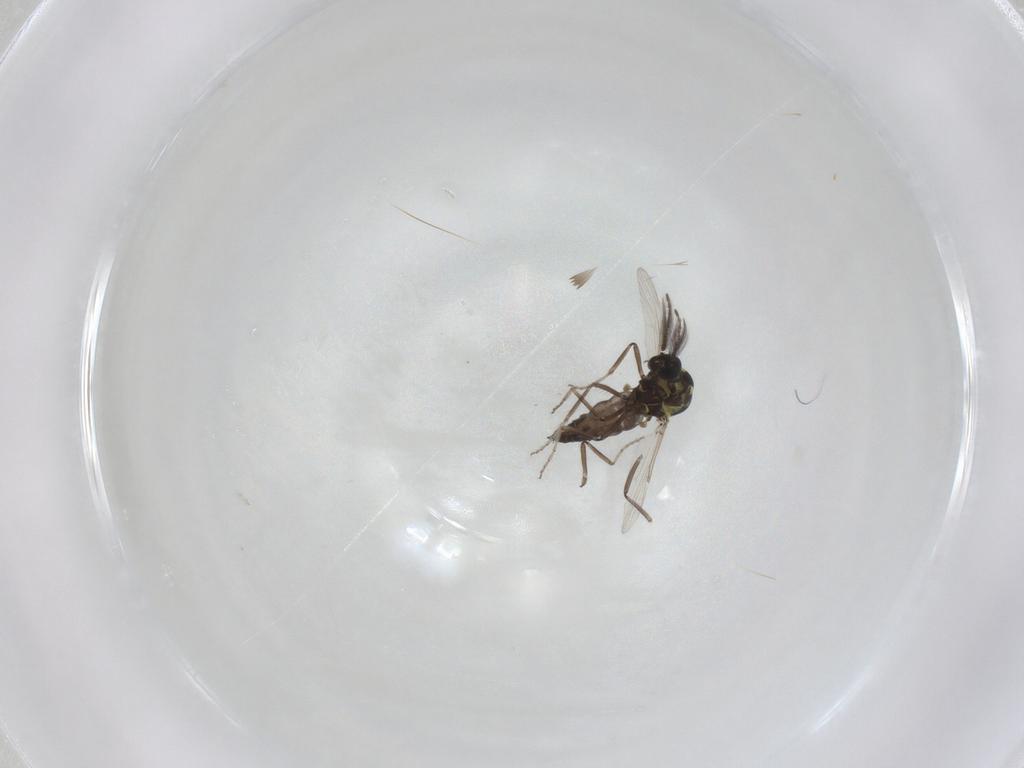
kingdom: Animalia
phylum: Arthropoda
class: Insecta
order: Diptera
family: Ceratopogonidae
